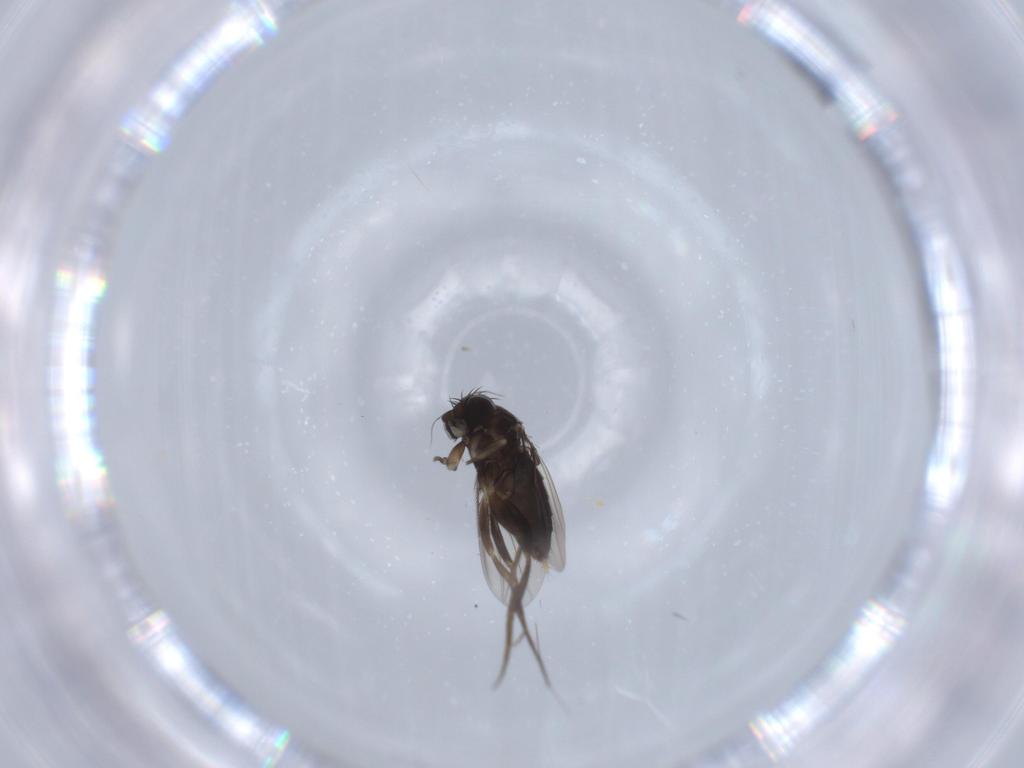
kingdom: Animalia
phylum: Arthropoda
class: Insecta
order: Diptera
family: Phoridae
